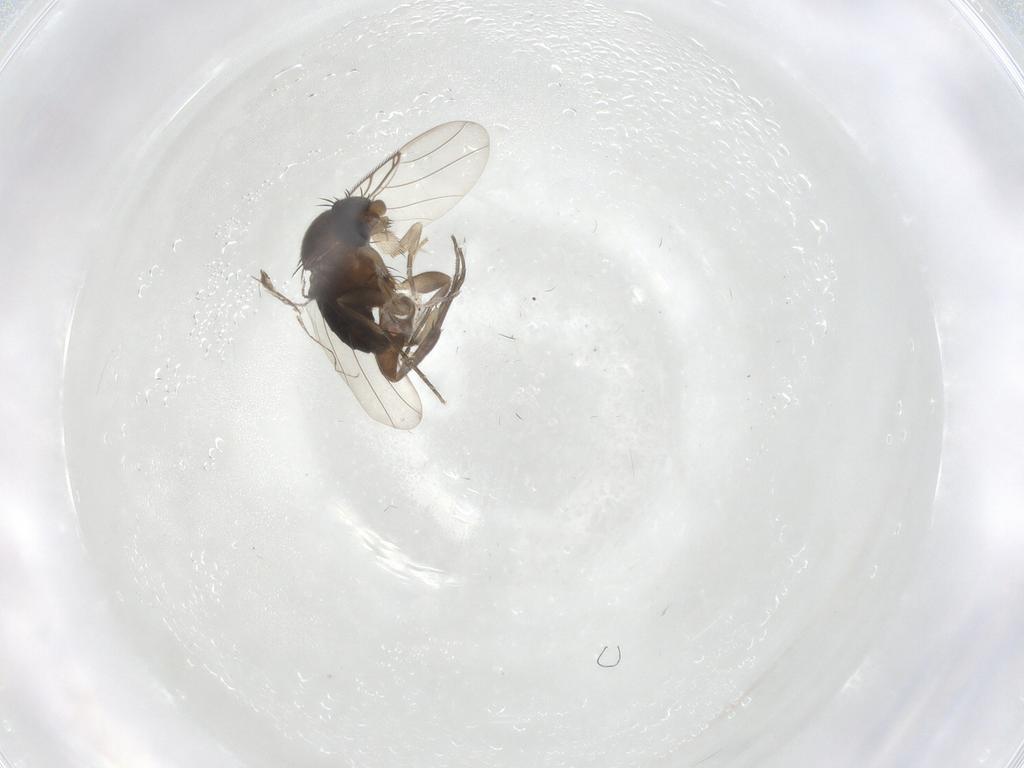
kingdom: Animalia
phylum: Arthropoda
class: Insecta
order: Diptera
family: Phoridae
